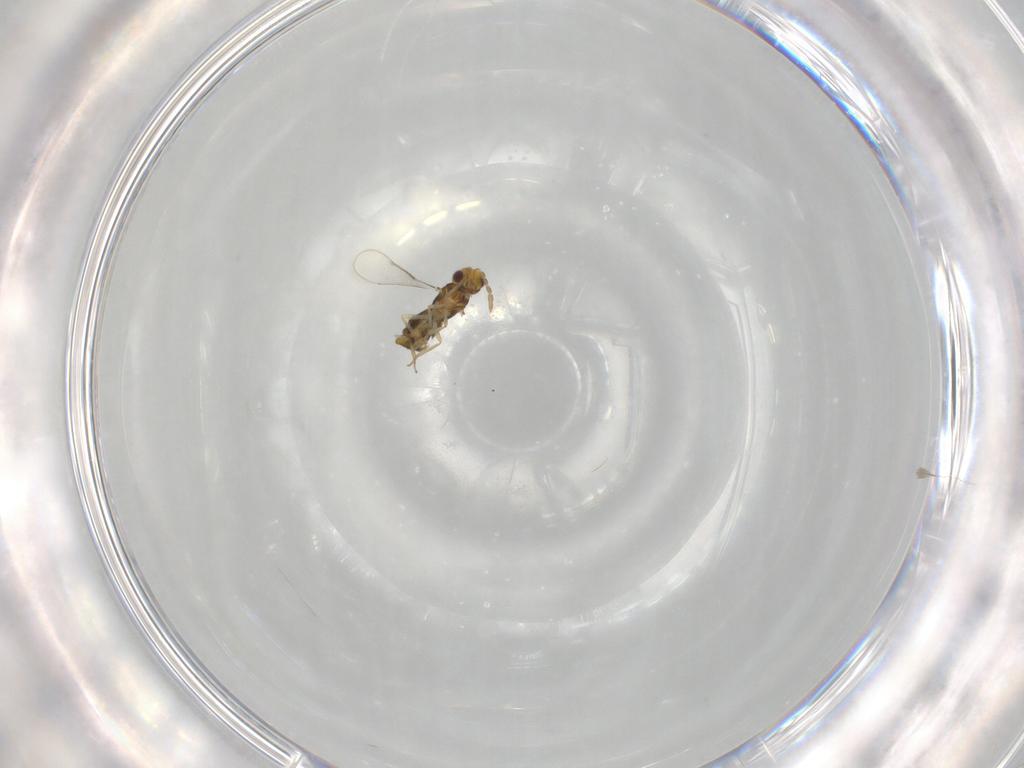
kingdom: Animalia
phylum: Arthropoda
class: Insecta
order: Hymenoptera
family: Aphelinidae
